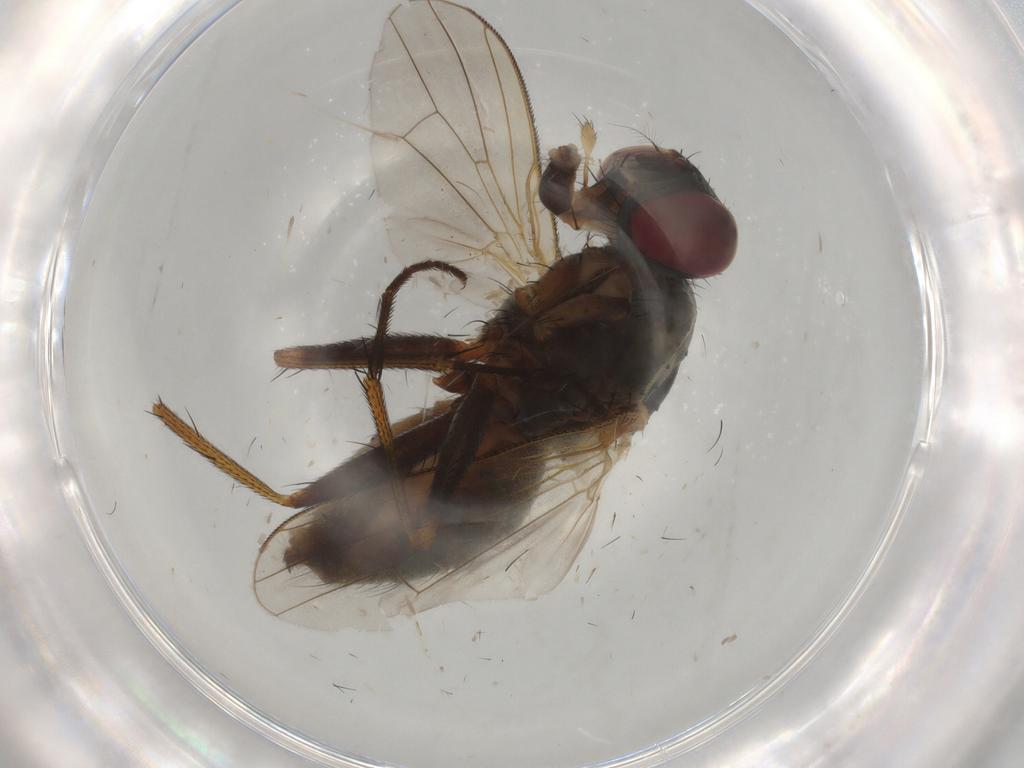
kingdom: Animalia
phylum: Arthropoda
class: Insecta
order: Diptera
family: Muscidae
